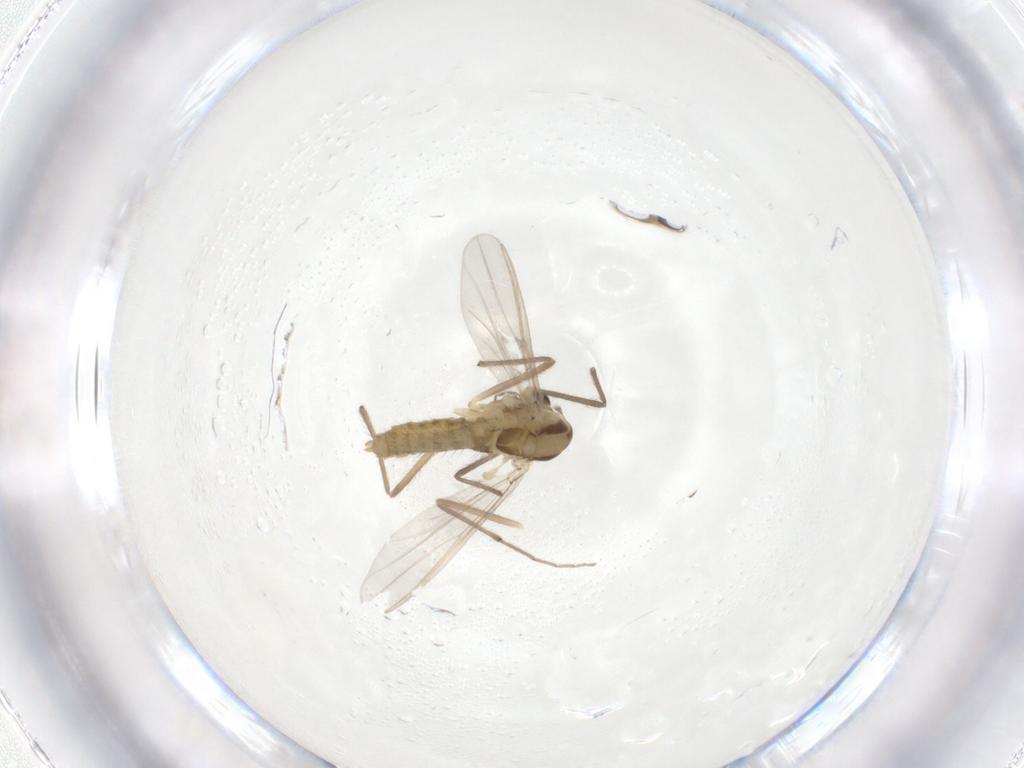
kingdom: Animalia
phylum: Arthropoda
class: Insecta
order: Diptera
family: Chironomidae
